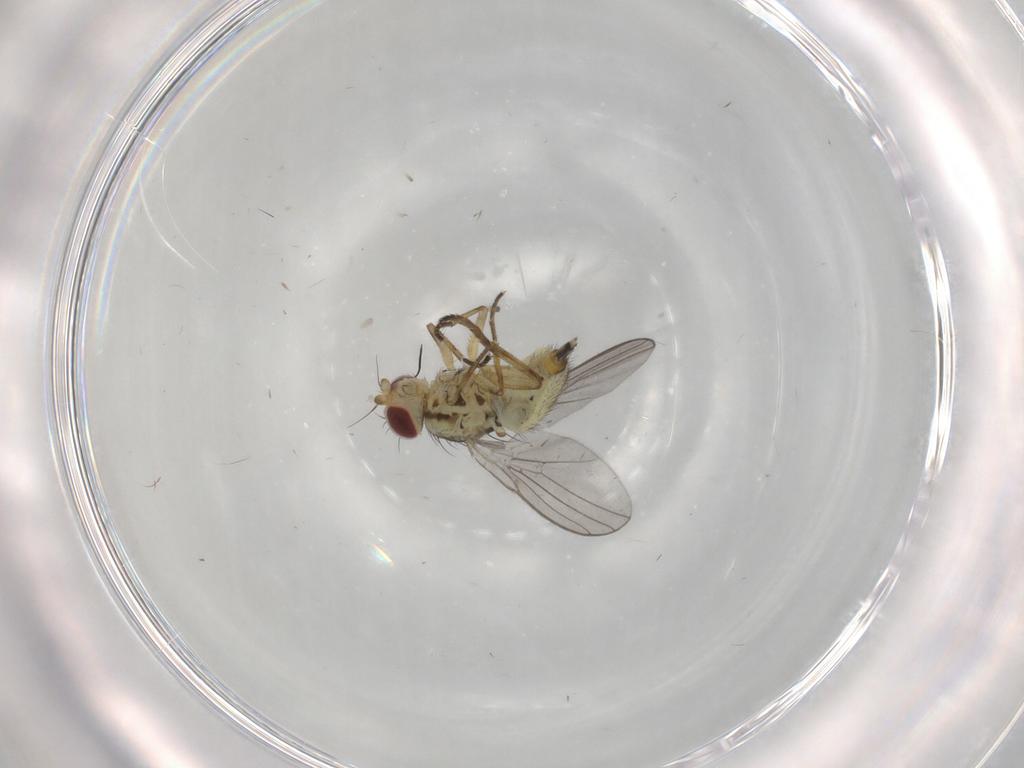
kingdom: Animalia
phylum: Arthropoda
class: Insecta
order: Diptera
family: Agromyzidae
